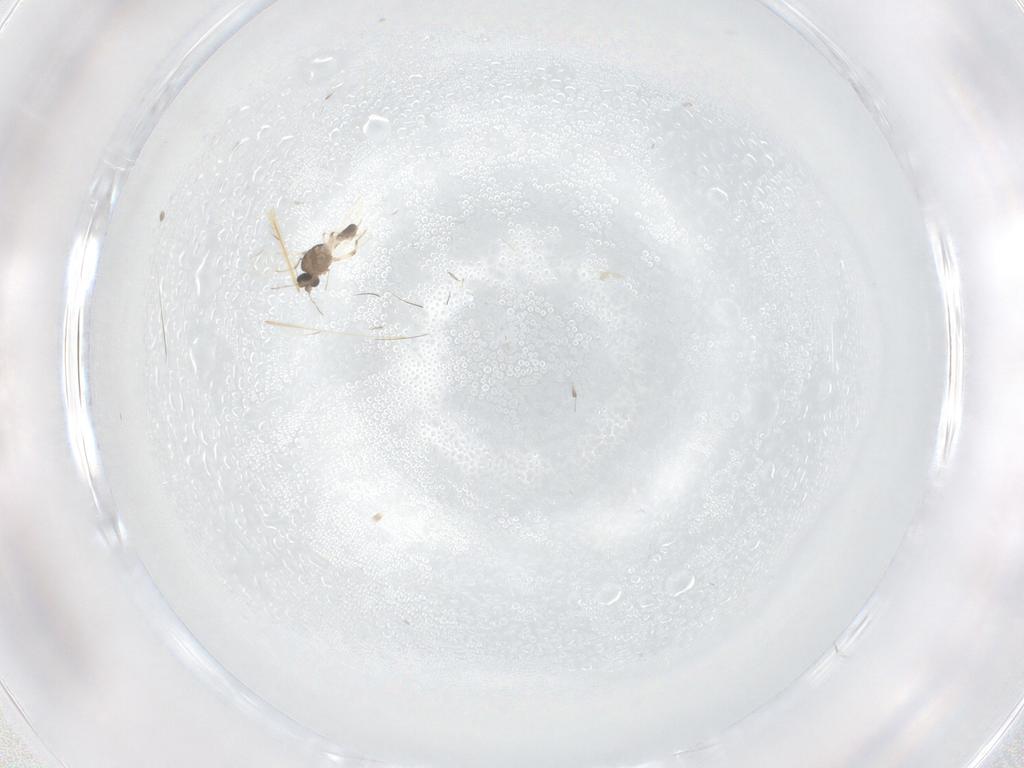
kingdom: Animalia
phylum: Arthropoda
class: Insecta
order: Diptera
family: Ceratopogonidae
